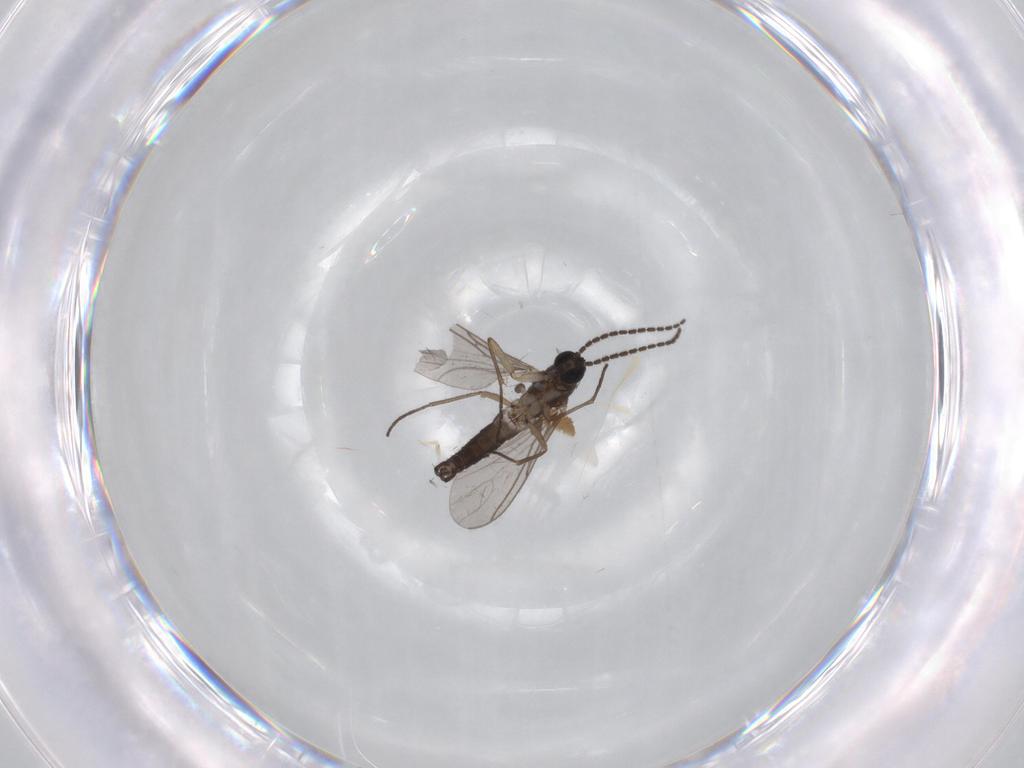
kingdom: Animalia
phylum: Arthropoda
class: Insecta
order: Diptera
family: Sciaridae
